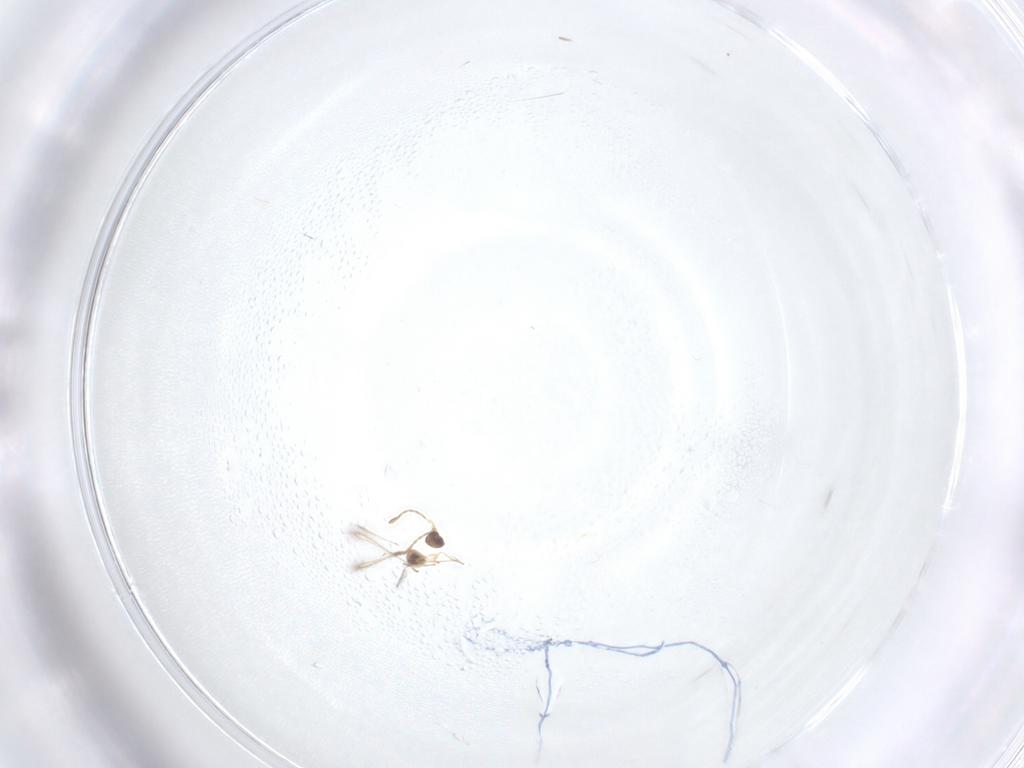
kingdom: Animalia
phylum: Arthropoda
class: Insecta
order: Hymenoptera
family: Mymaridae
